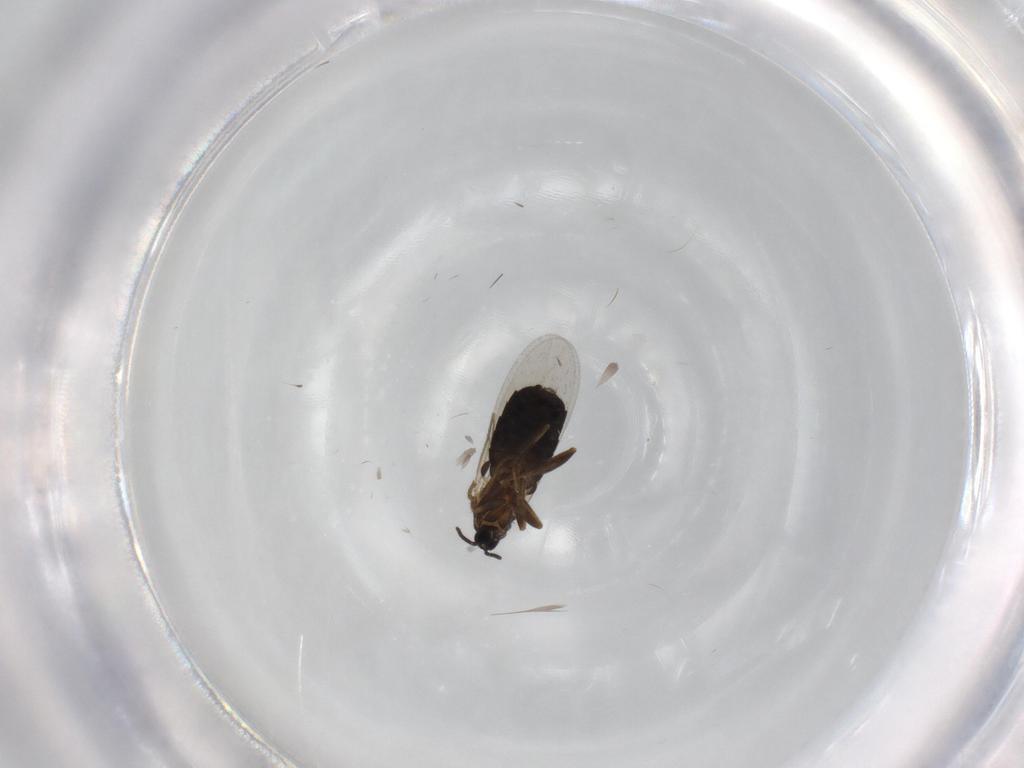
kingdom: Animalia
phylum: Arthropoda
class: Insecta
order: Diptera
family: Scatopsidae
